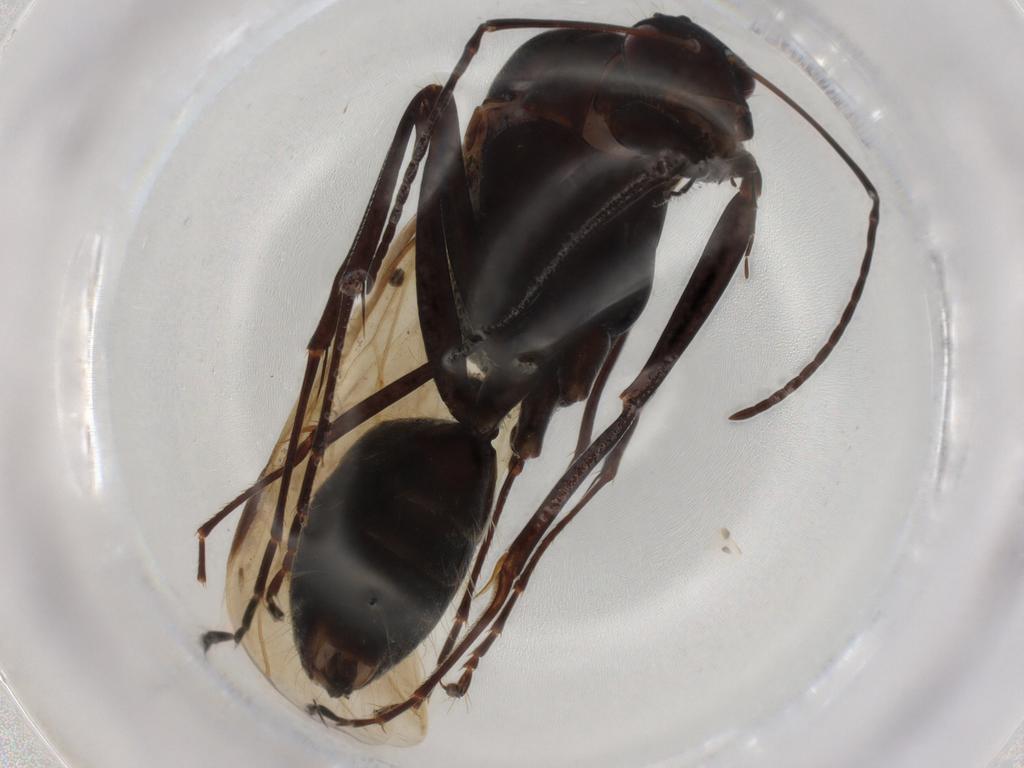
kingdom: Animalia
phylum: Arthropoda
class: Insecta
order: Hymenoptera
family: Formicidae
